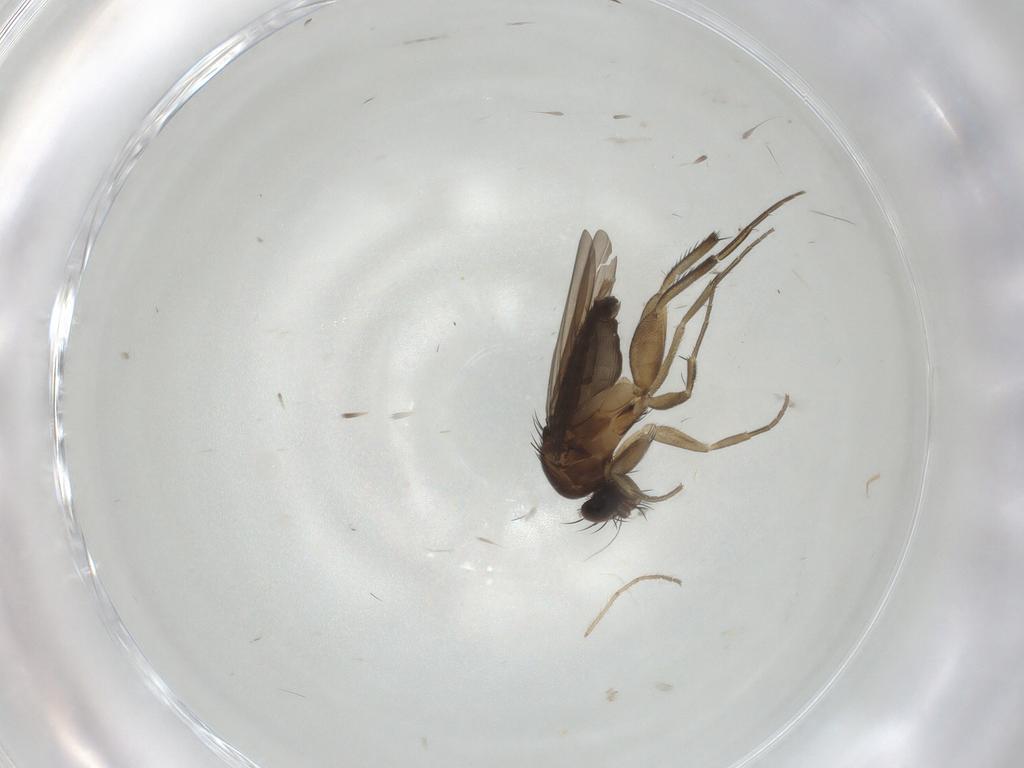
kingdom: Animalia
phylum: Arthropoda
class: Insecta
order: Diptera
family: Phoridae
